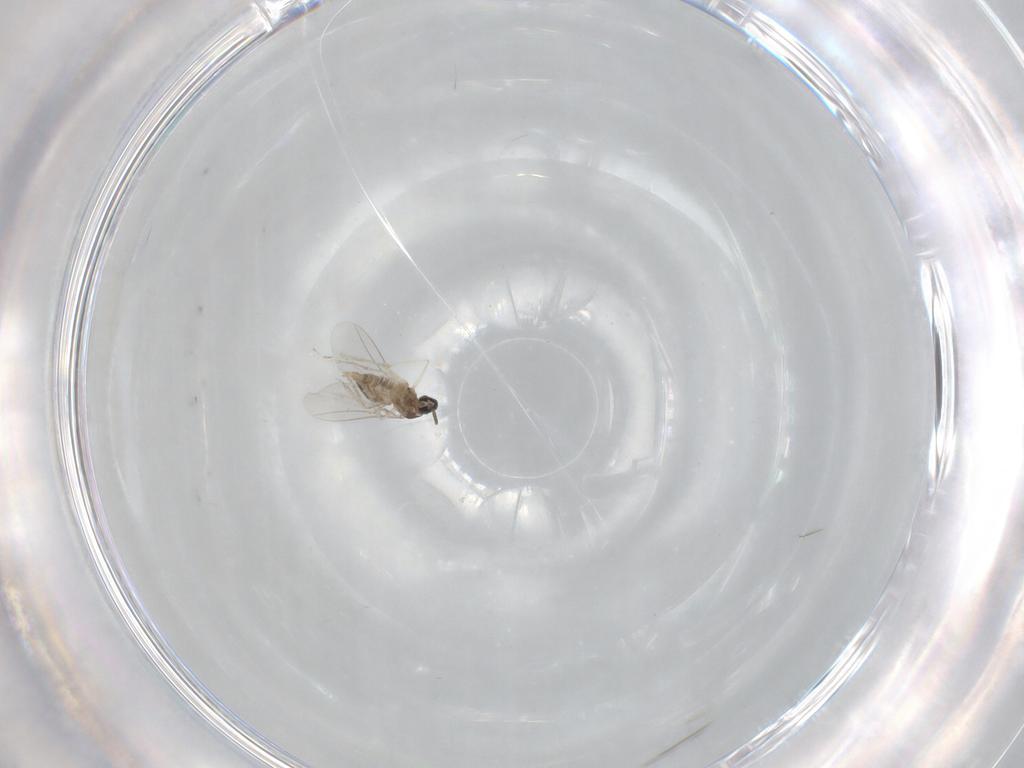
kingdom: Animalia
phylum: Arthropoda
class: Insecta
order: Diptera
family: Cecidomyiidae
